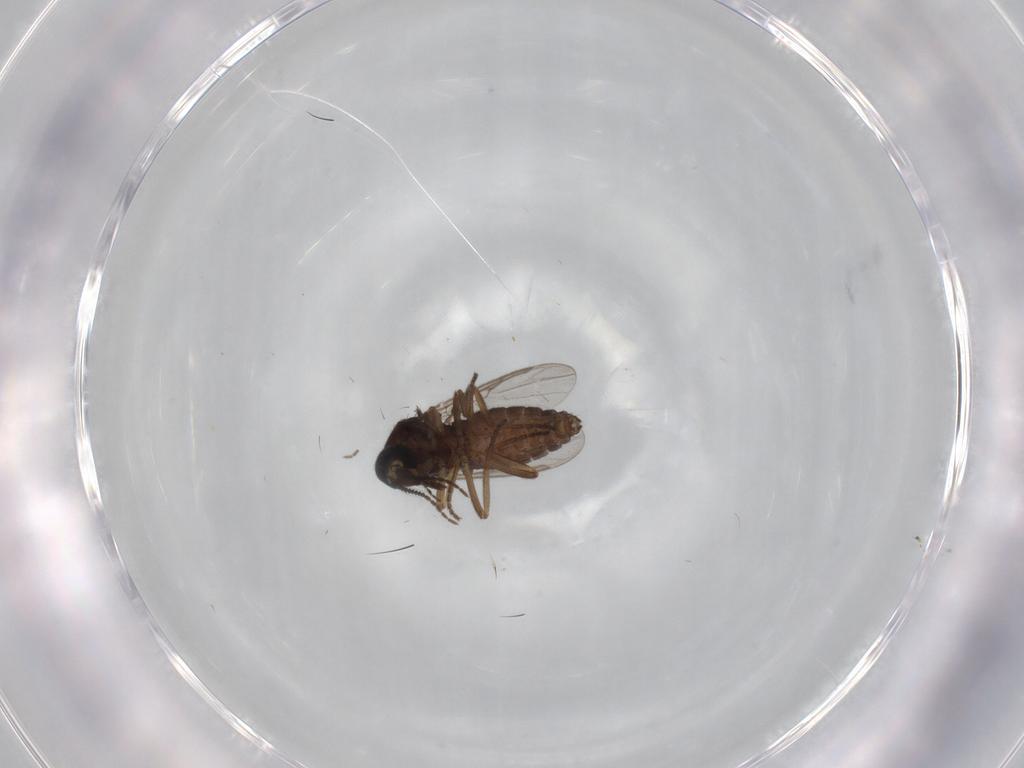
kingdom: Animalia
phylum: Arthropoda
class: Insecta
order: Diptera
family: Ceratopogonidae
